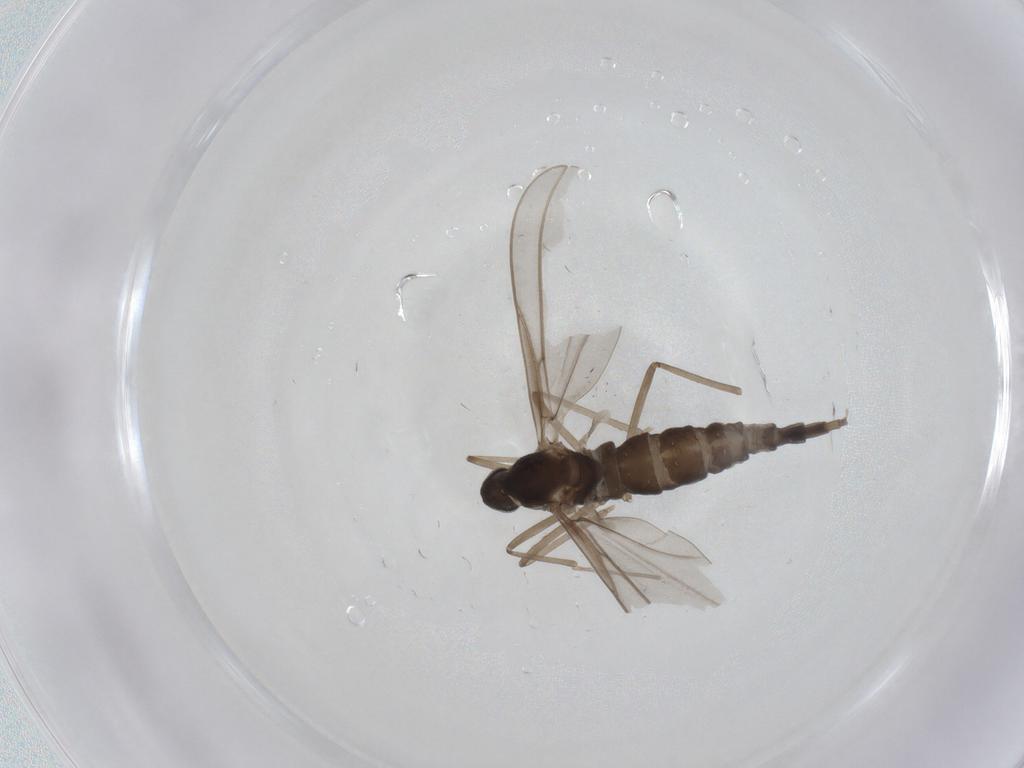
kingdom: Animalia
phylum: Arthropoda
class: Insecta
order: Diptera
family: Cecidomyiidae
